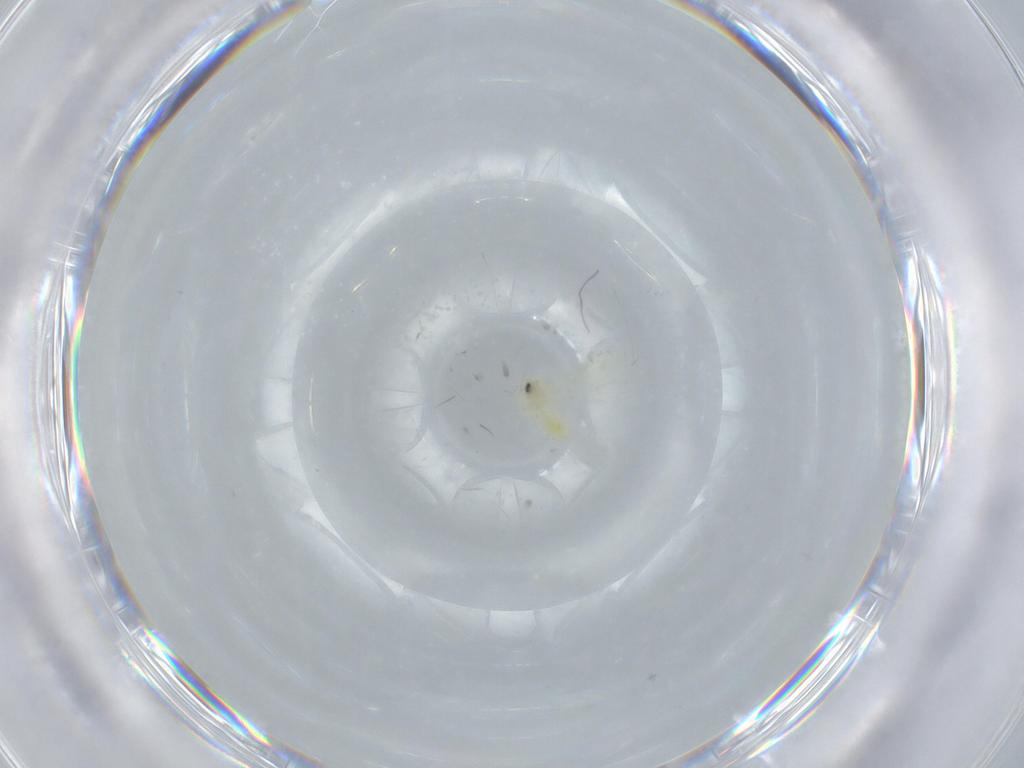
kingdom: Animalia
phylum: Arthropoda
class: Insecta
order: Hemiptera
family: Aleyrodidae
